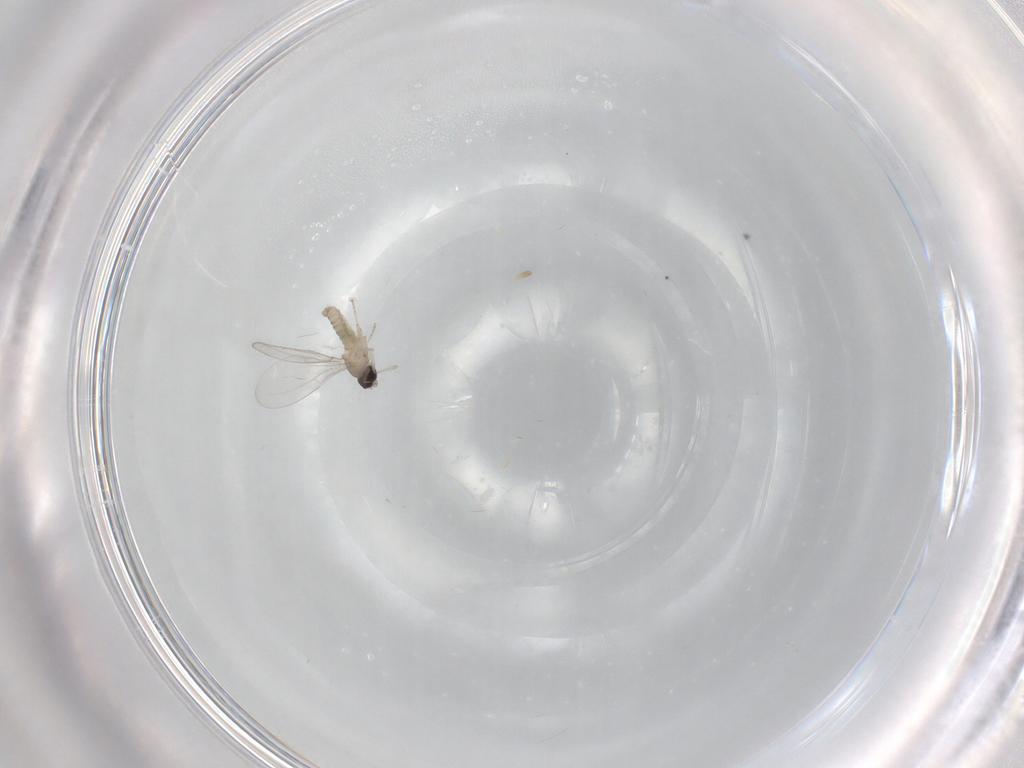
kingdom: Animalia
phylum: Arthropoda
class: Insecta
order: Diptera
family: Cecidomyiidae
